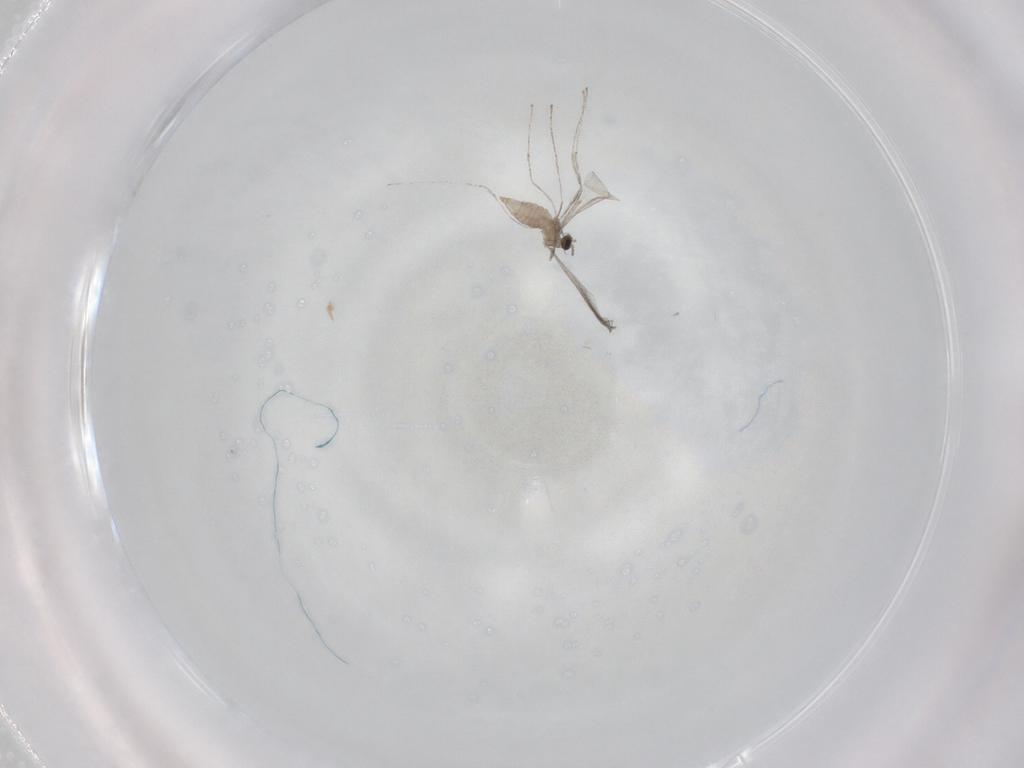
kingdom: Animalia
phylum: Arthropoda
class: Insecta
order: Diptera
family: Cecidomyiidae
